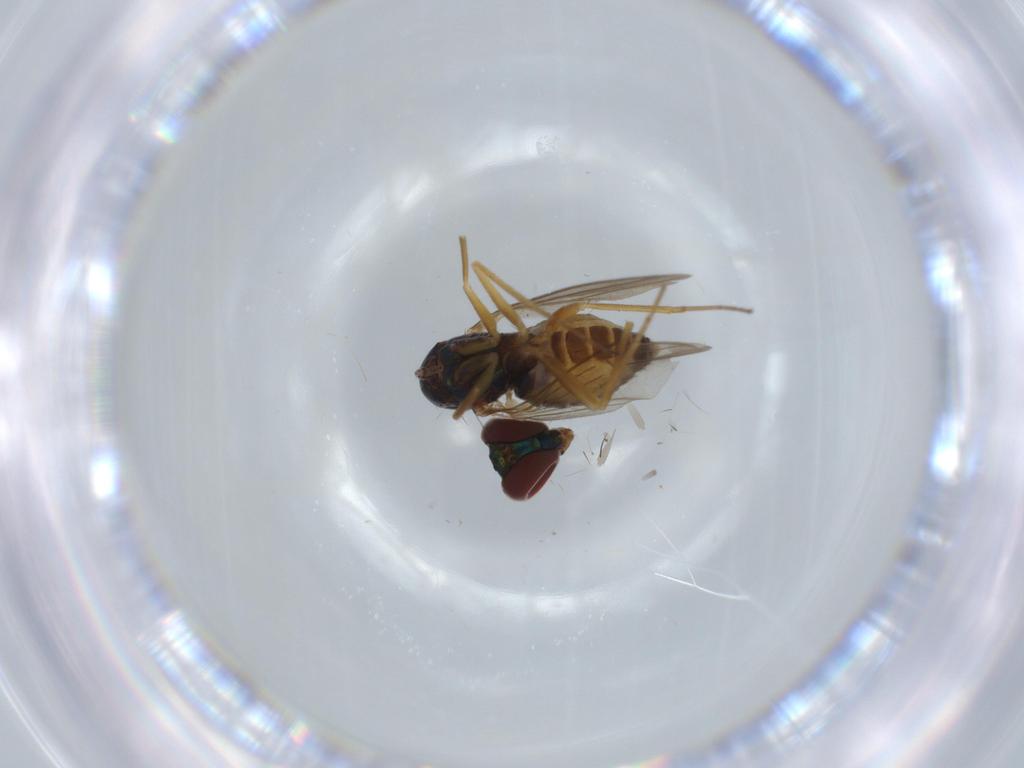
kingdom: Animalia
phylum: Arthropoda
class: Insecta
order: Diptera
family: Dolichopodidae
